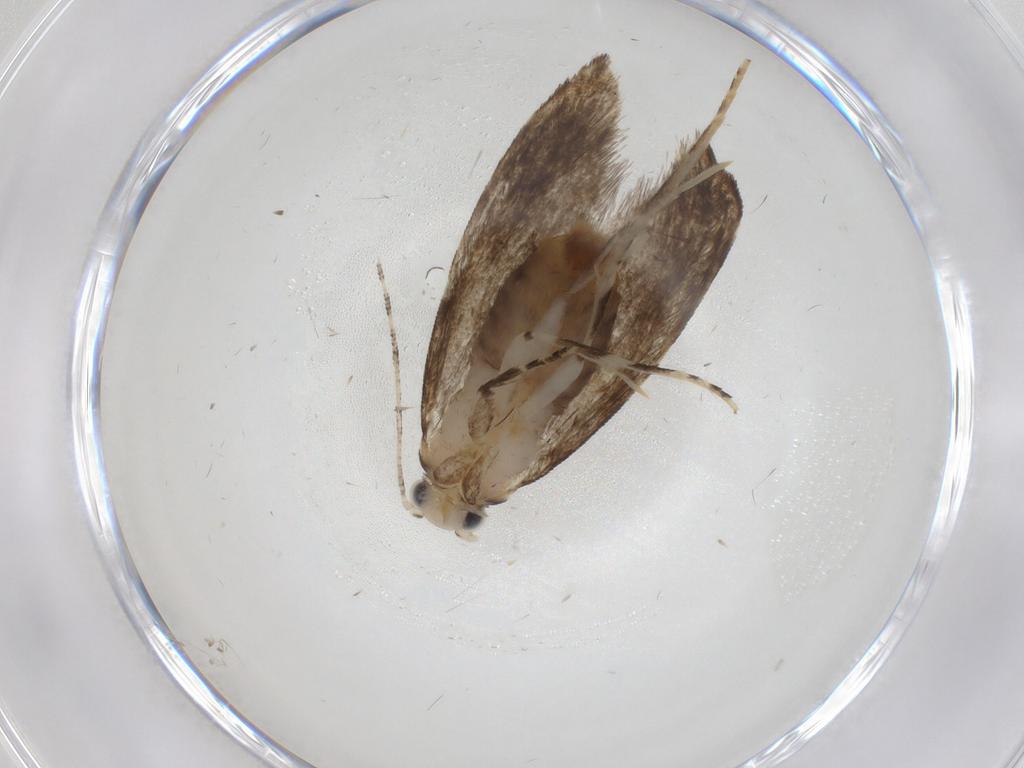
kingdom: Animalia
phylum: Arthropoda
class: Insecta
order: Lepidoptera
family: Tineidae
